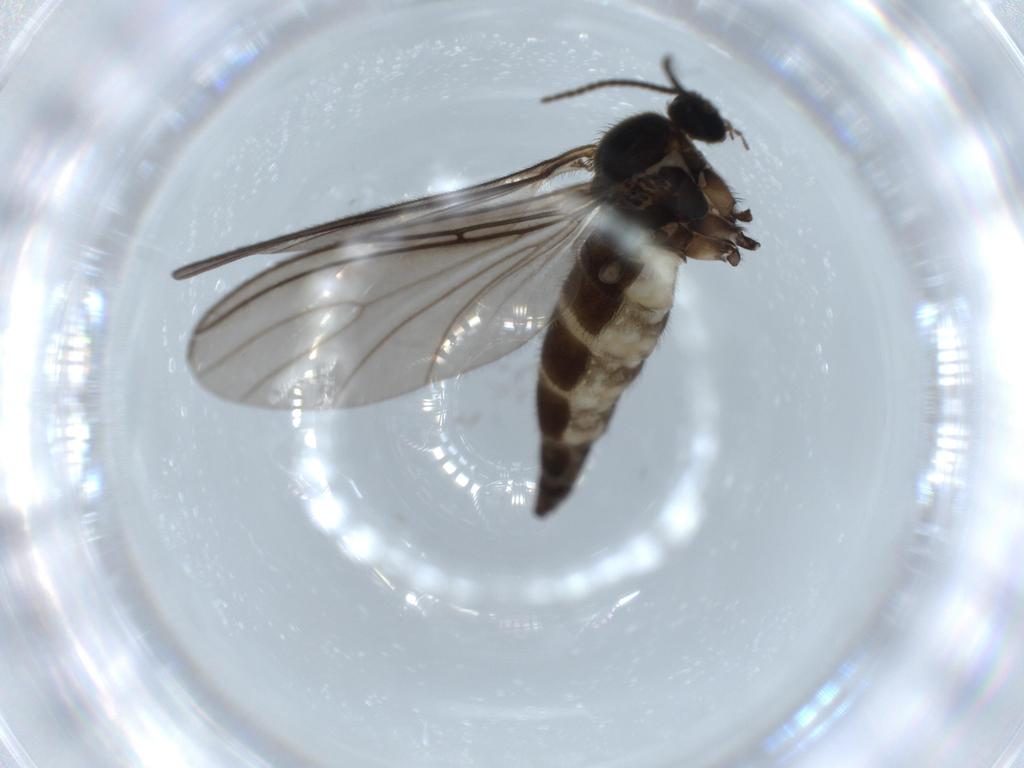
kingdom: Animalia
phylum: Arthropoda
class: Insecta
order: Diptera
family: Sciaridae
